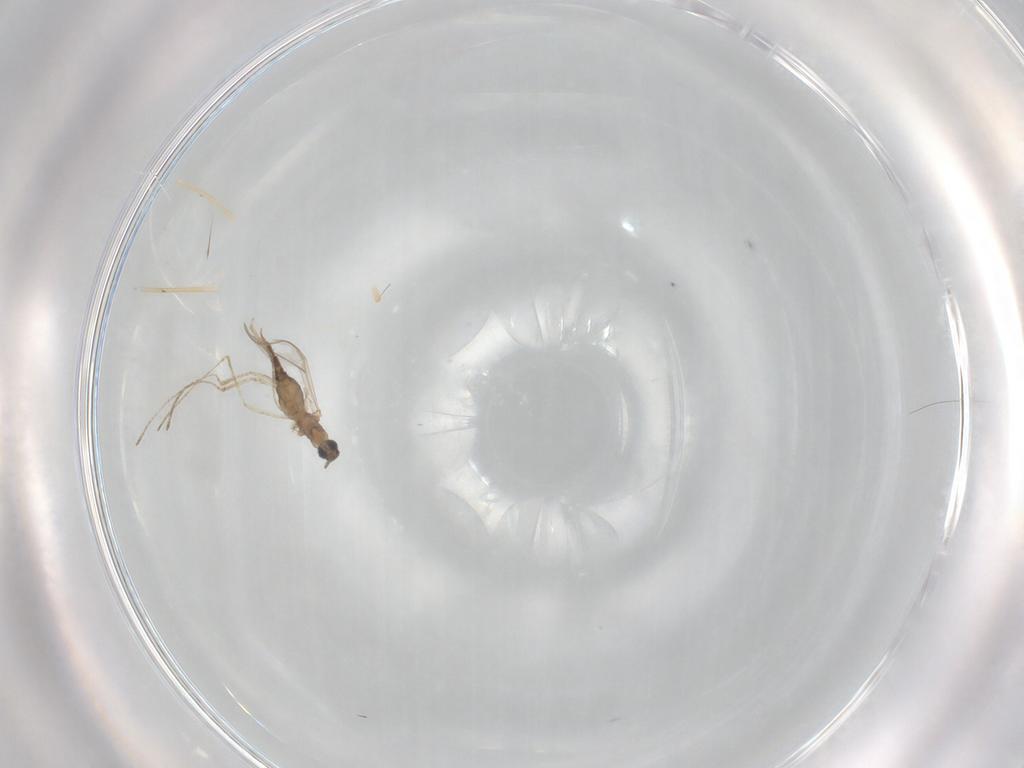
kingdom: Animalia
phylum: Arthropoda
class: Insecta
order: Diptera
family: Cecidomyiidae
